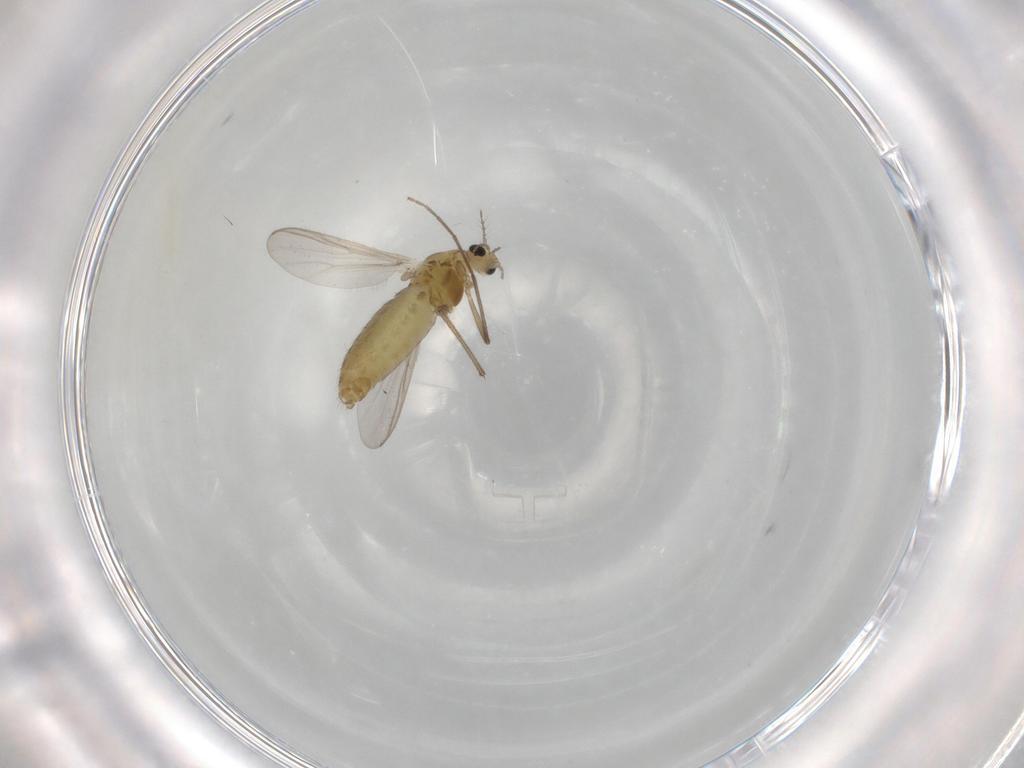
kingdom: Animalia
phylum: Arthropoda
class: Insecta
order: Diptera
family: Chironomidae
